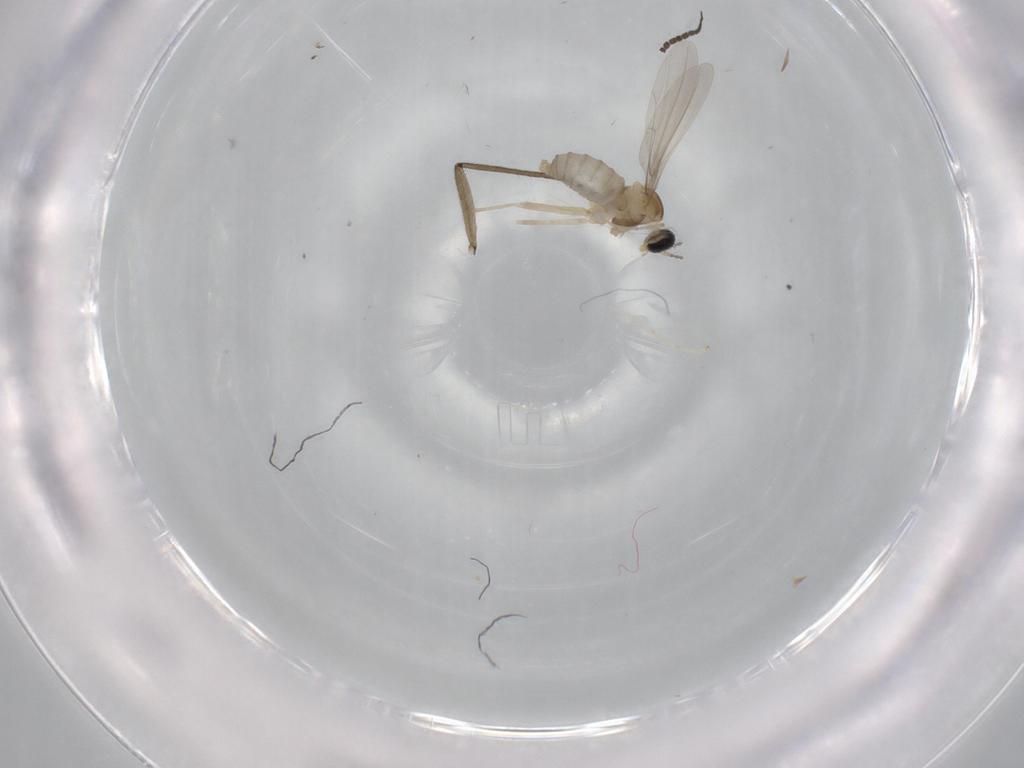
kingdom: Animalia
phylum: Arthropoda
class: Insecta
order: Diptera
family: Cecidomyiidae
